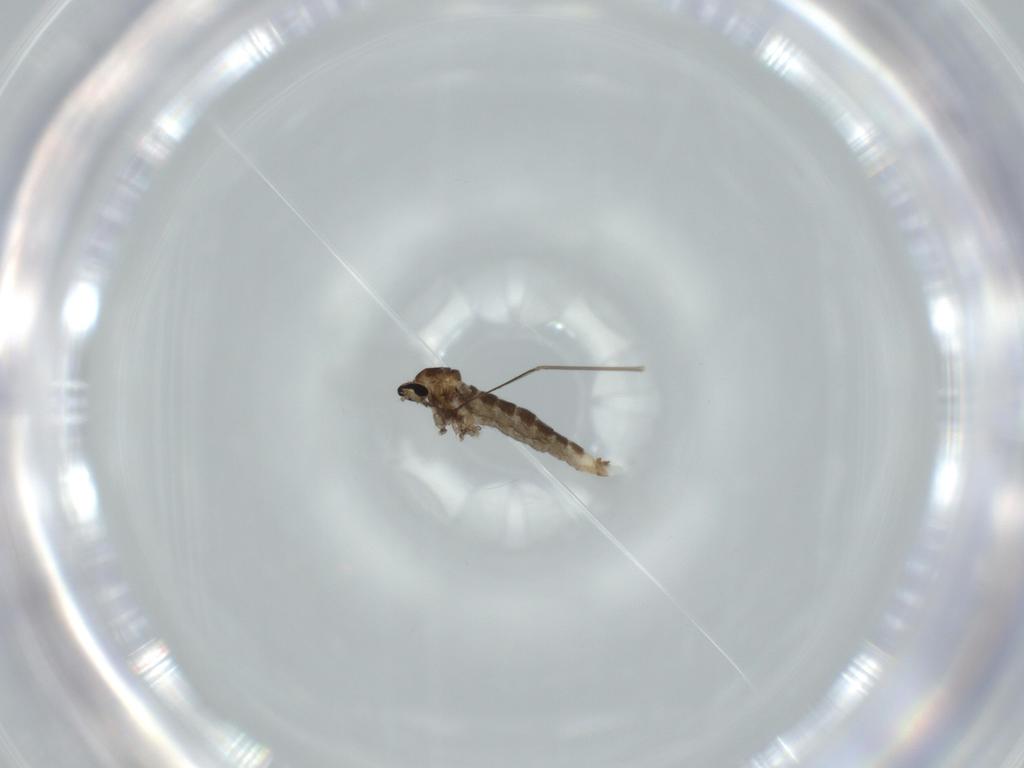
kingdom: Animalia
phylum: Arthropoda
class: Insecta
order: Diptera
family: Cecidomyiidae
